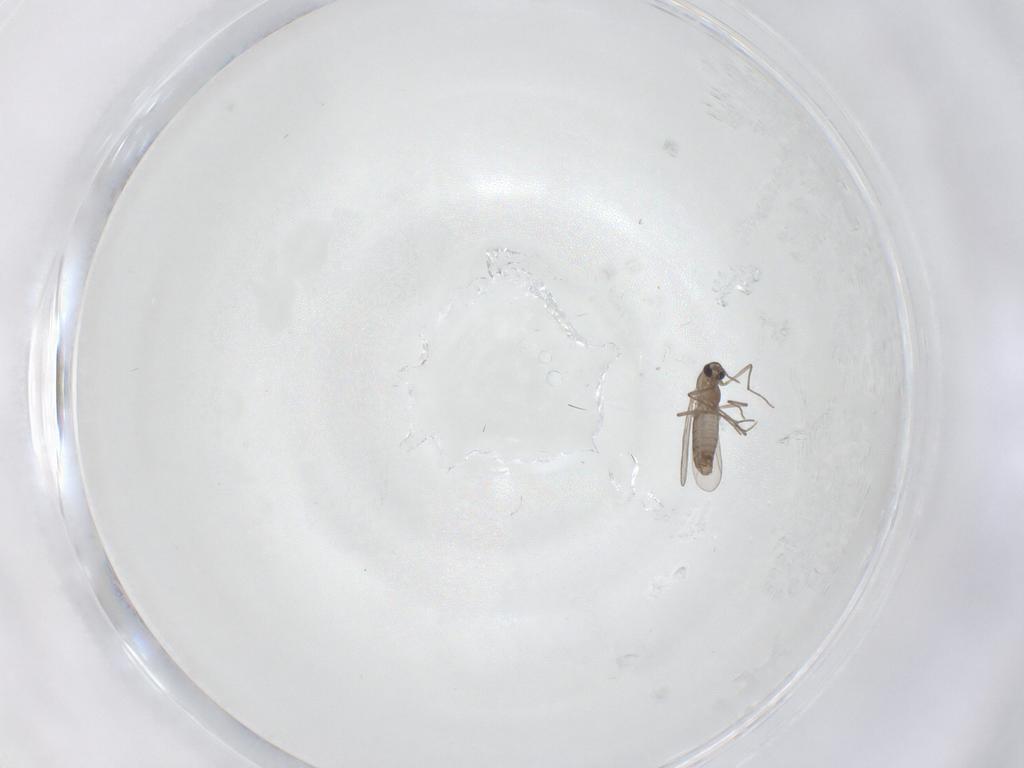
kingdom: Animalia
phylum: Arthropoda
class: Insecta
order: Diptera
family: Chironomidae
